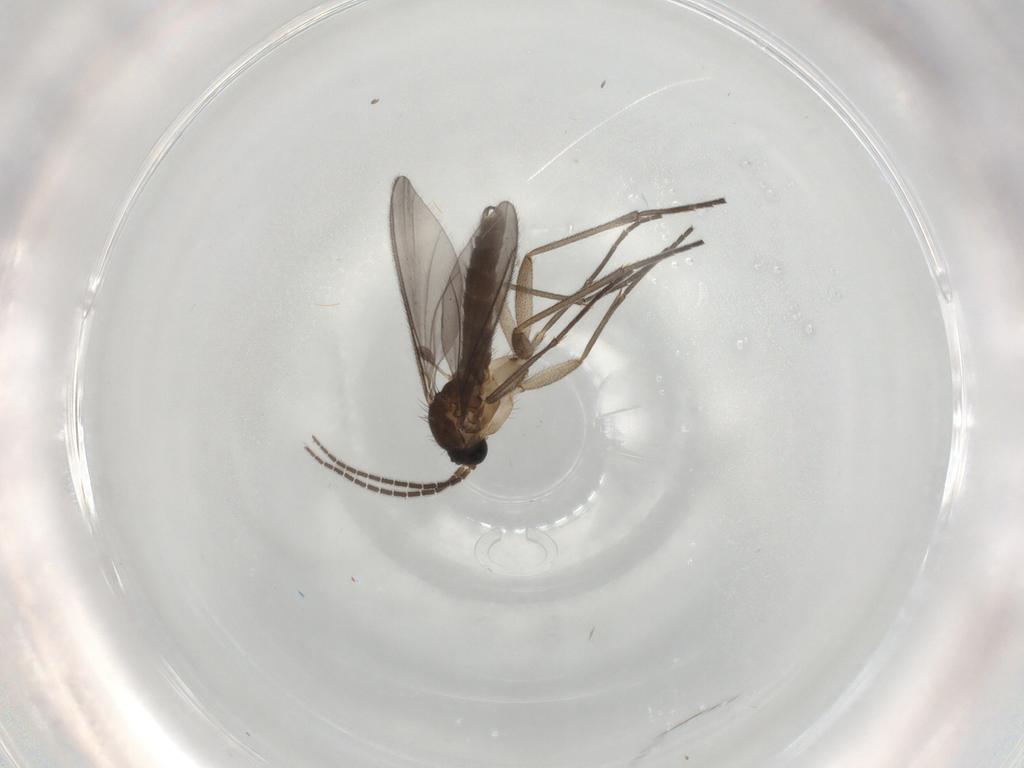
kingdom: Animalia
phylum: Arthropoda
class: Insecta
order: Diptera
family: Sciaridae
